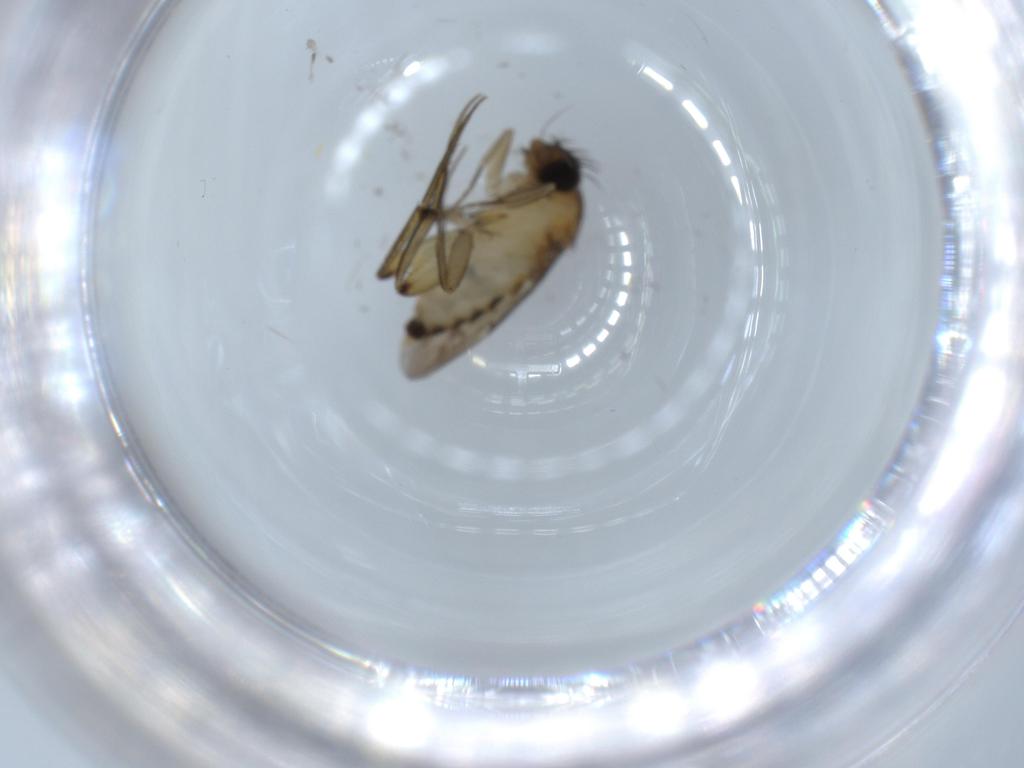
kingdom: Animalia
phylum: Arthropoda
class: Insecta
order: Diptera
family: Phoridae
